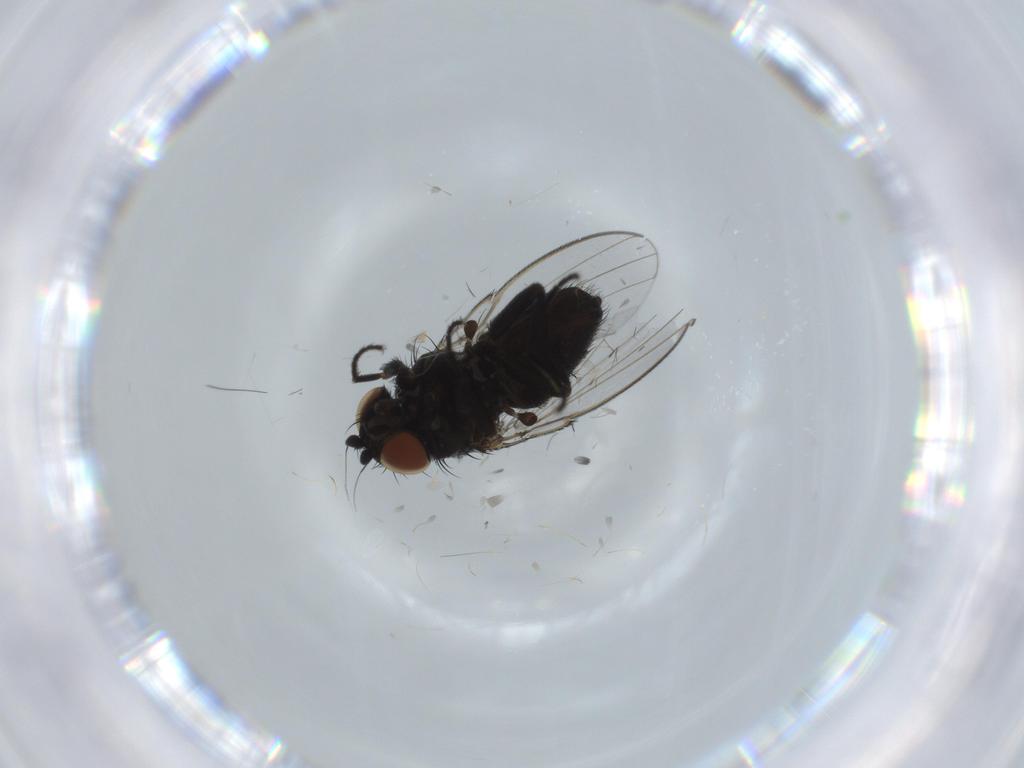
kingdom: Animalia
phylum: Arthropoda
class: Insecta
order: Diptera
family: Milichiidae
